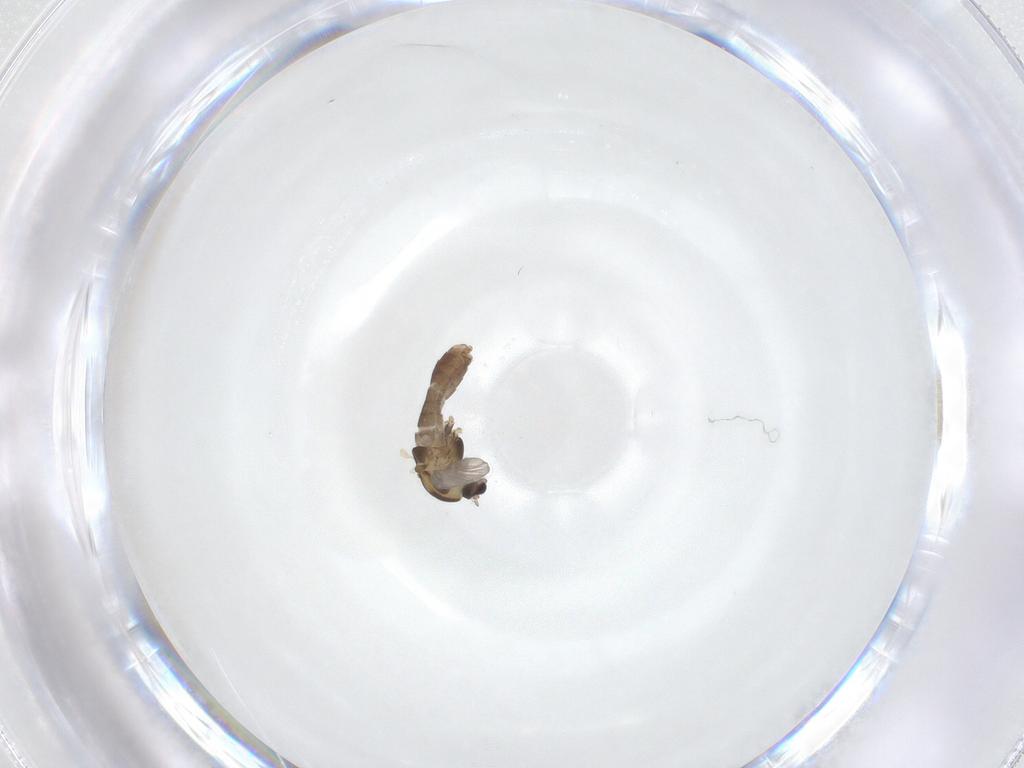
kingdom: Animalia
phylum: Arthropoda
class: Insecta
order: Diptera
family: Chironomidae
